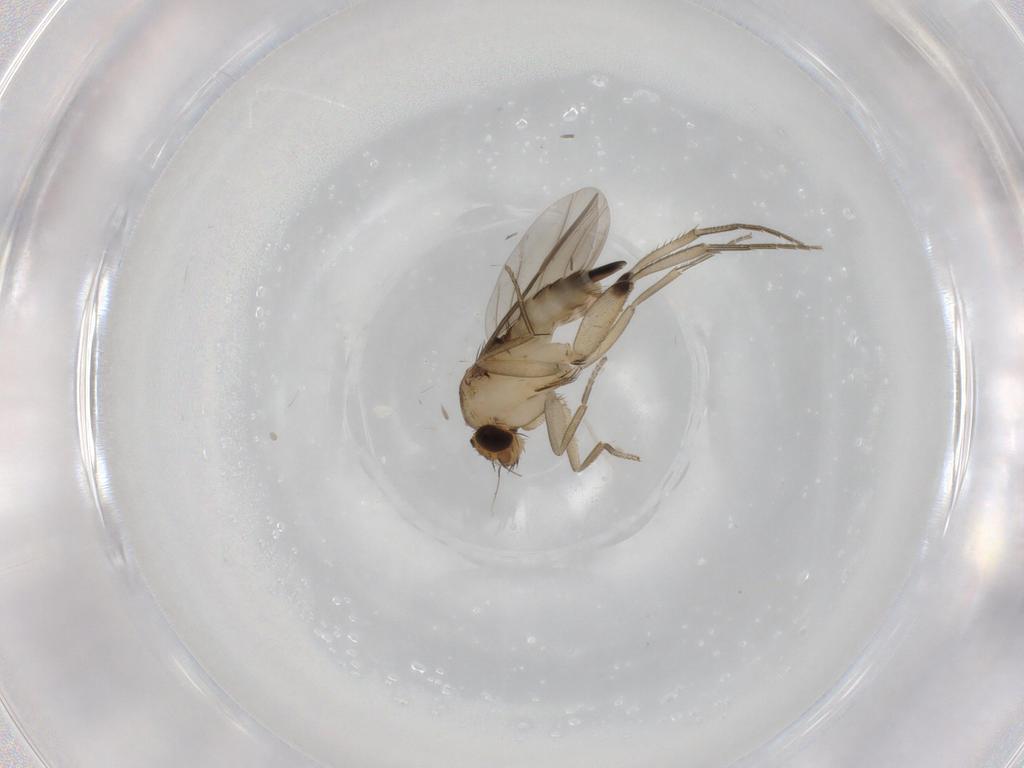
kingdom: Animalia
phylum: Arthropoda
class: Insecta
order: Diptera
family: Phoridae
